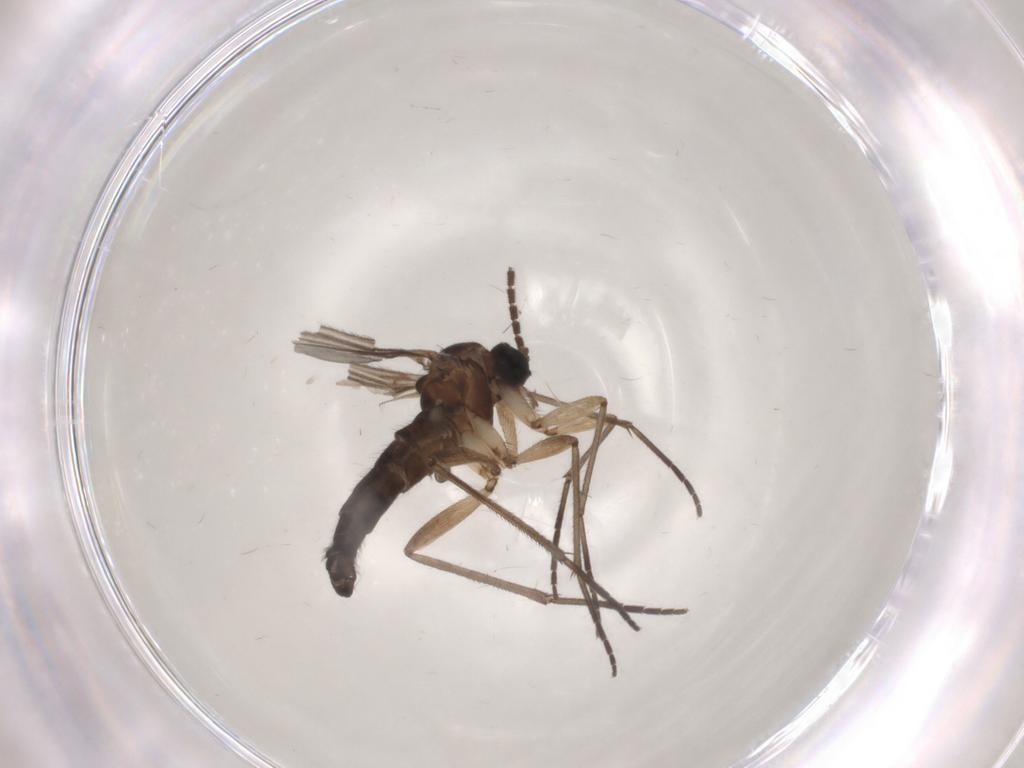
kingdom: Animalia
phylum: Arthropoda
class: Insecta
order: Diptera
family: Sciaridae
